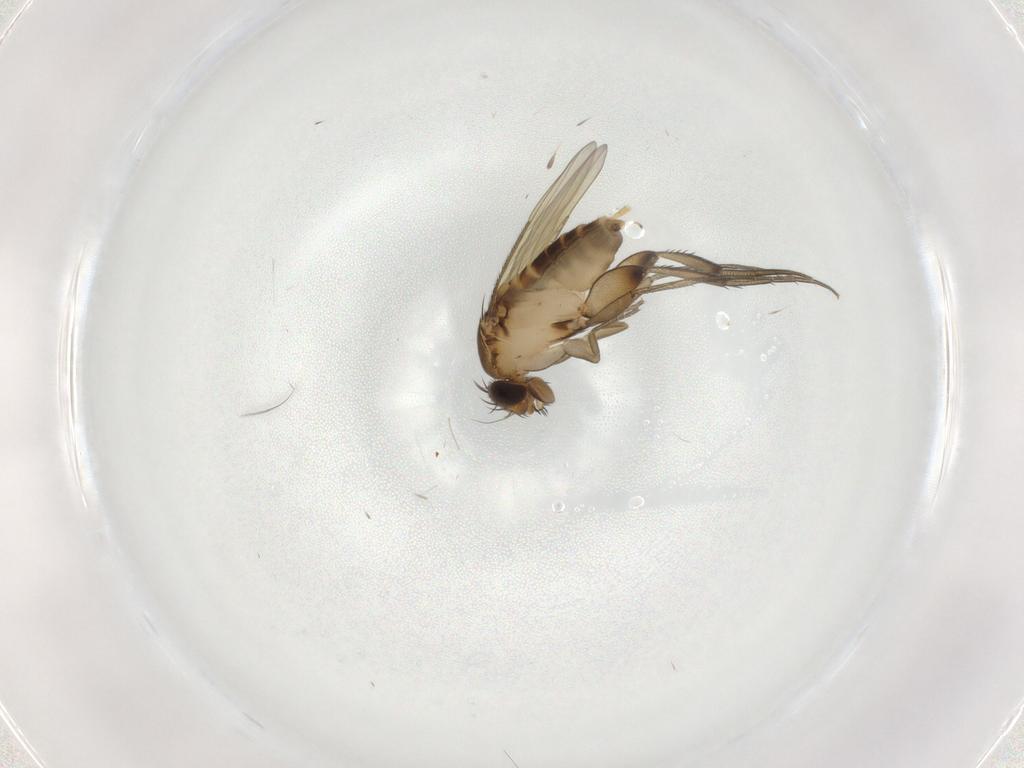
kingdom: Animalia
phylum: Arthropoda
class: Insecta
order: Diptera
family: Phoridae
